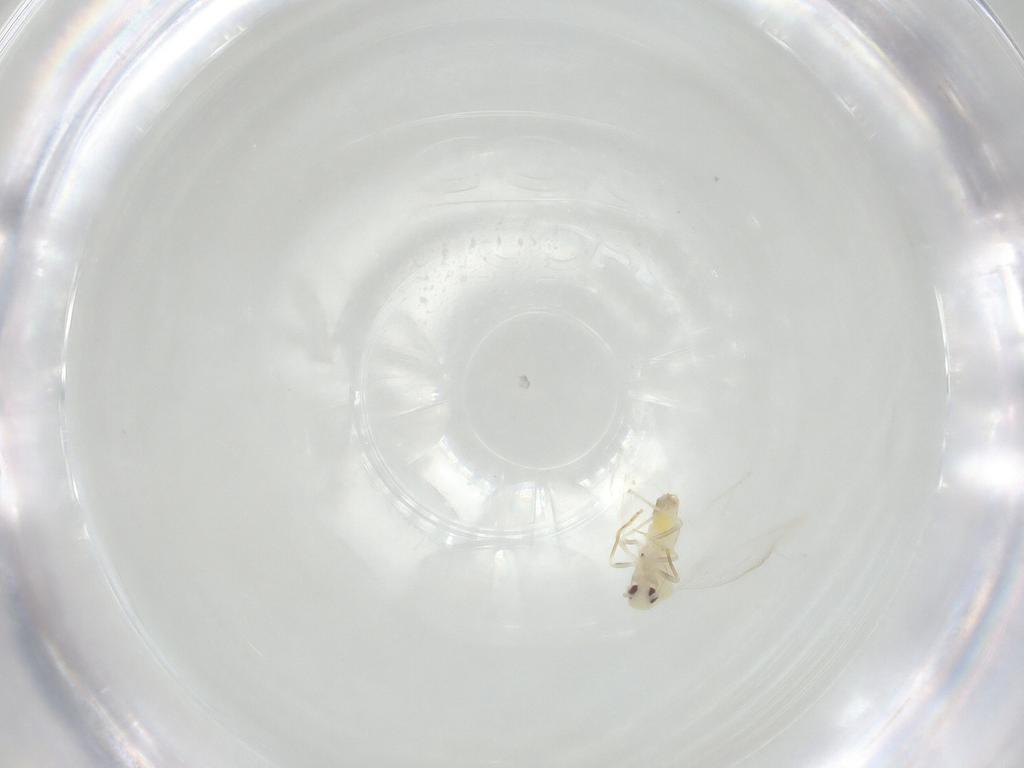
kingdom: Animalia
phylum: Arthropoda
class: Insecta
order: Hemiptera
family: Aleyrodidae
